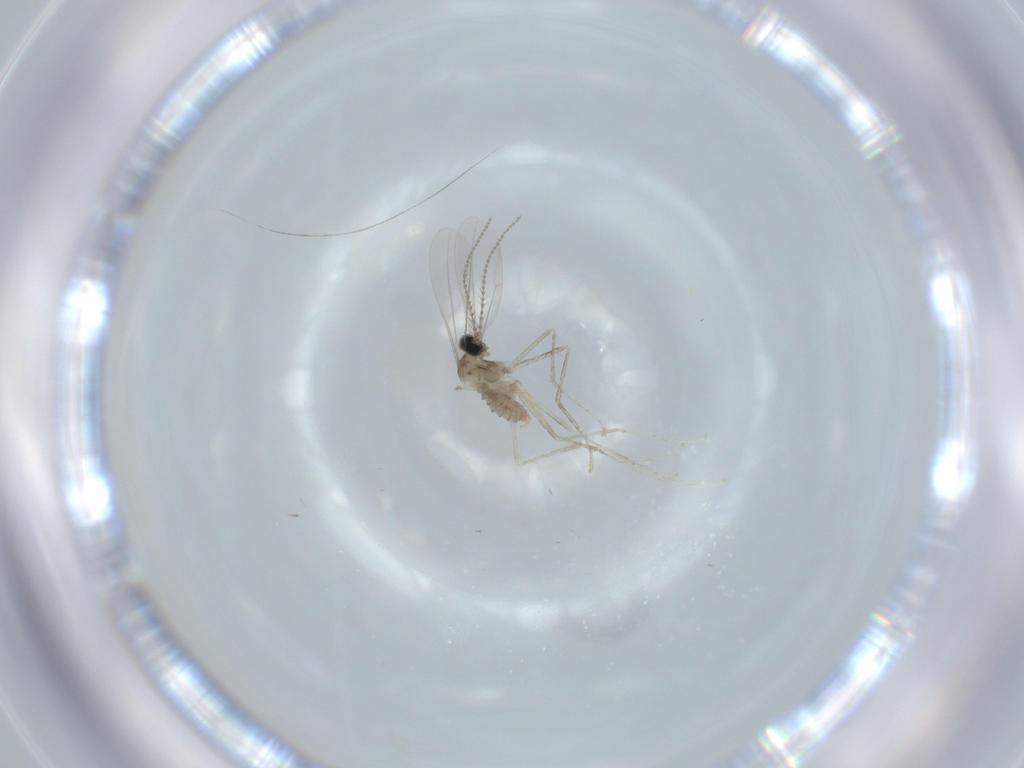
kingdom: Animalia
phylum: Arthropoda
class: Insecta
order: Diptera
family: Cecidomyiidae
